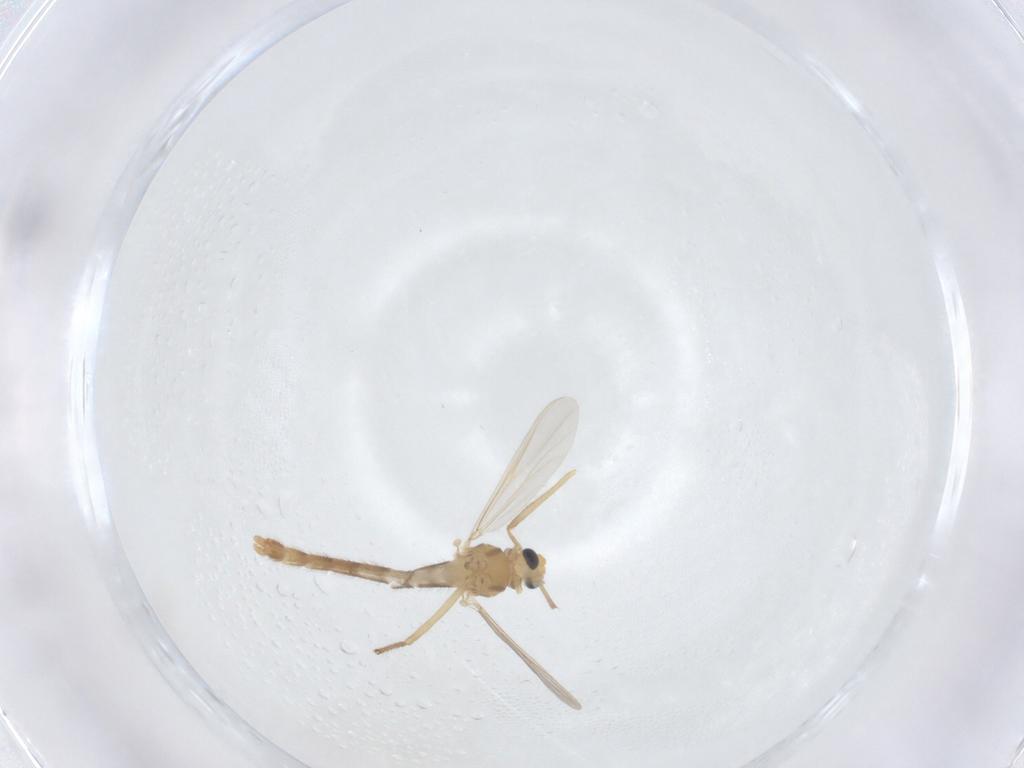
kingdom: Animalia
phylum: Arthropoda
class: Insecta
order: Diptera
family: Chironomidae
